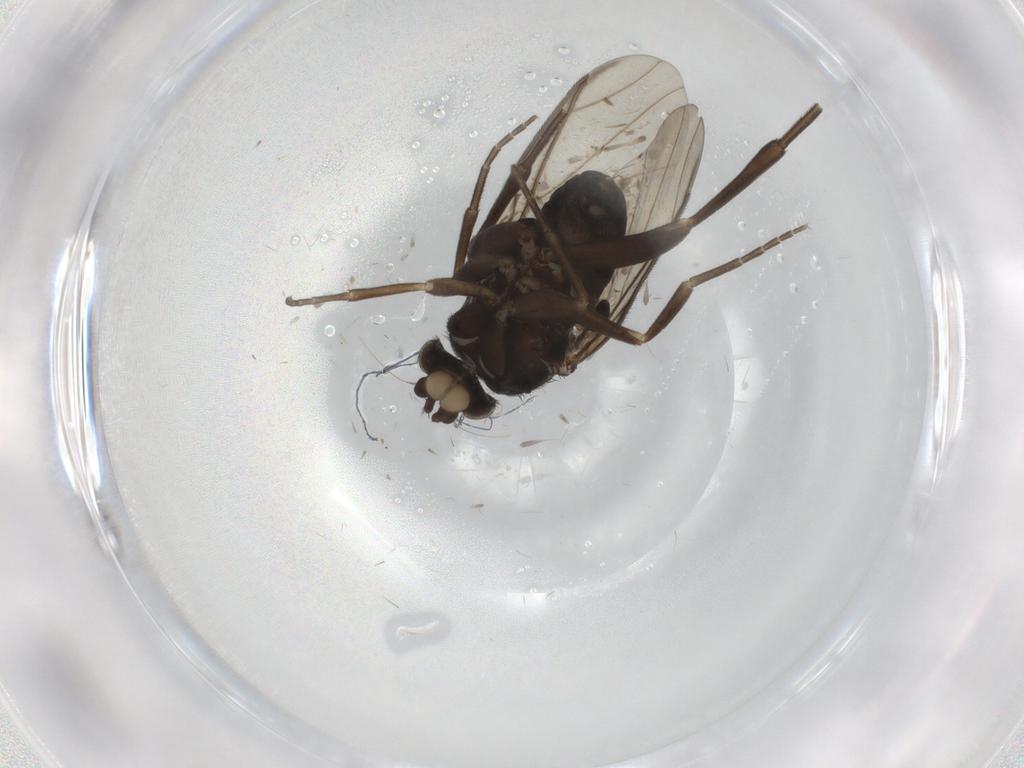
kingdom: Animalia
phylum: Arthropoda
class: Insecta
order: Diptera
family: Phoridae
